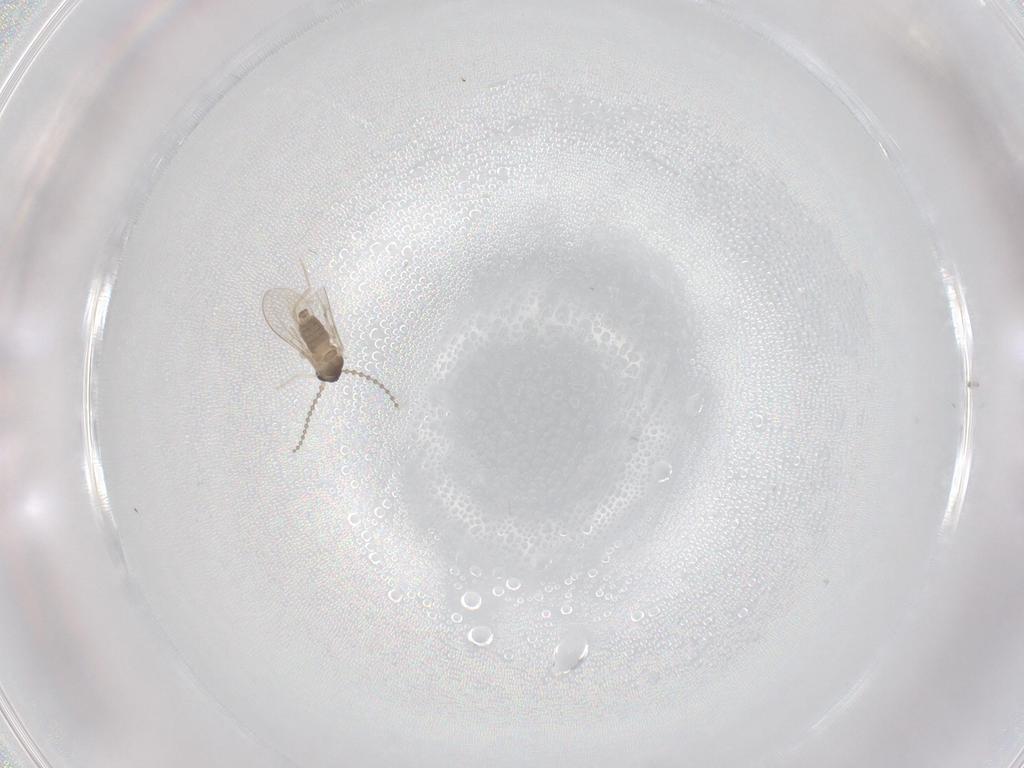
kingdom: Animalia
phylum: Arthropoda
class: Insecta
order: Diptera
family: Cecidomyiidae
